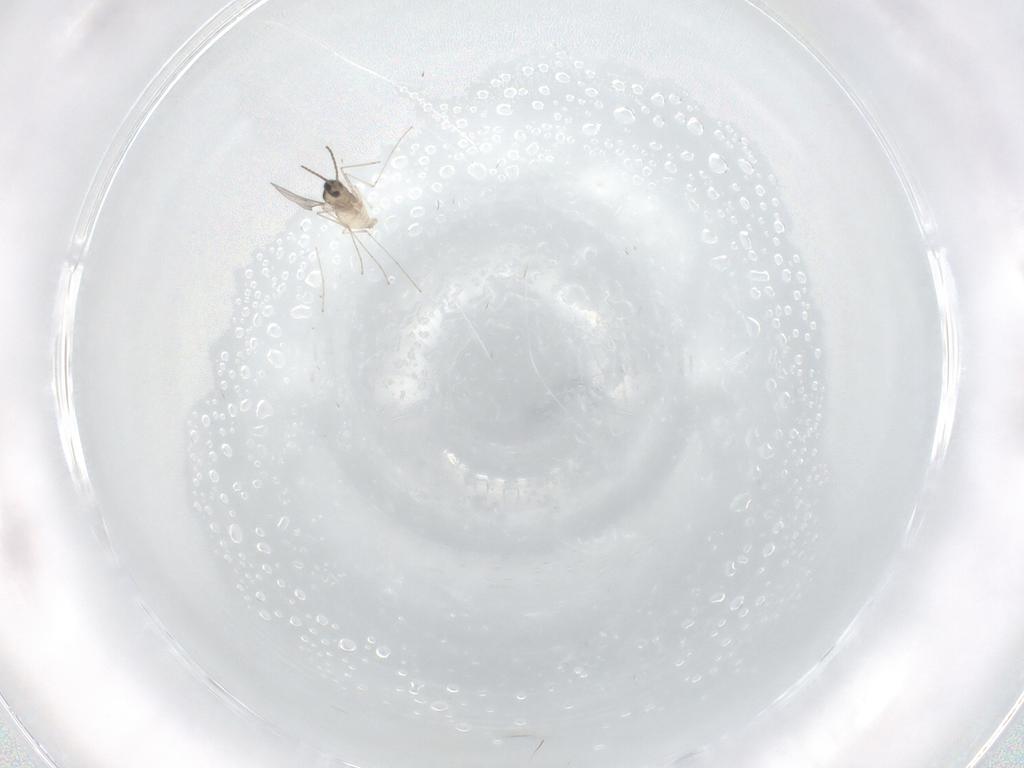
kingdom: Animalia
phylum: Arthropoda
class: Insecta
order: Diptera
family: Cecidomyiidae
